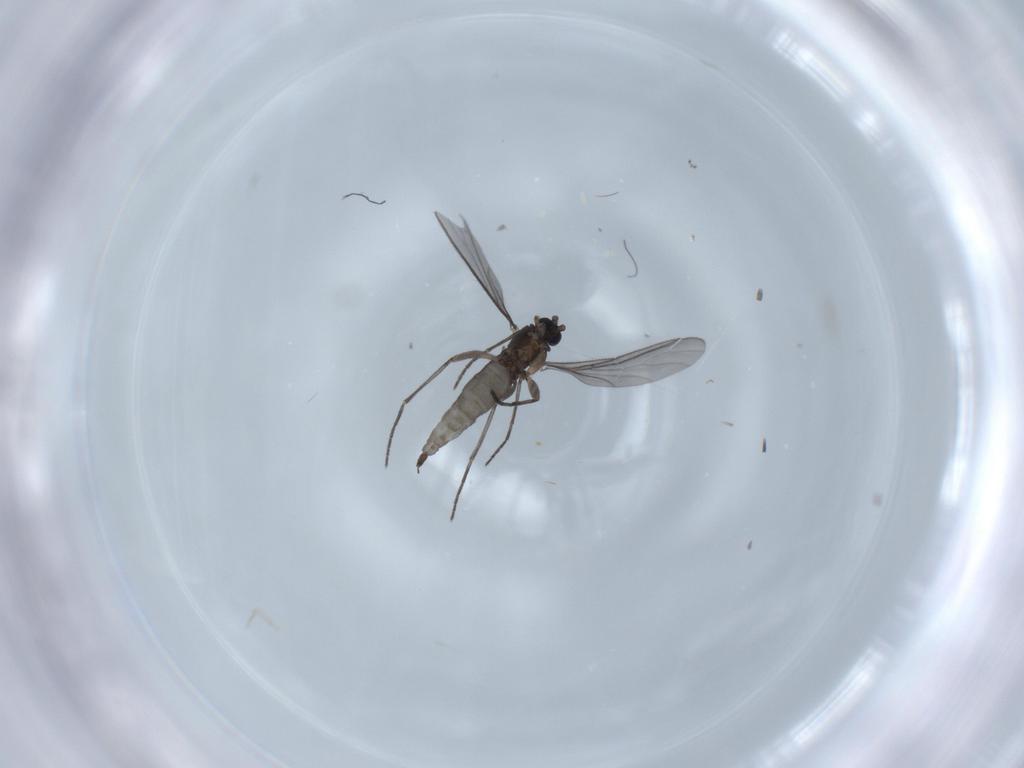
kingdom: Animalia
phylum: Arthropoda
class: Insecta
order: Diptera
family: Sciaridae
